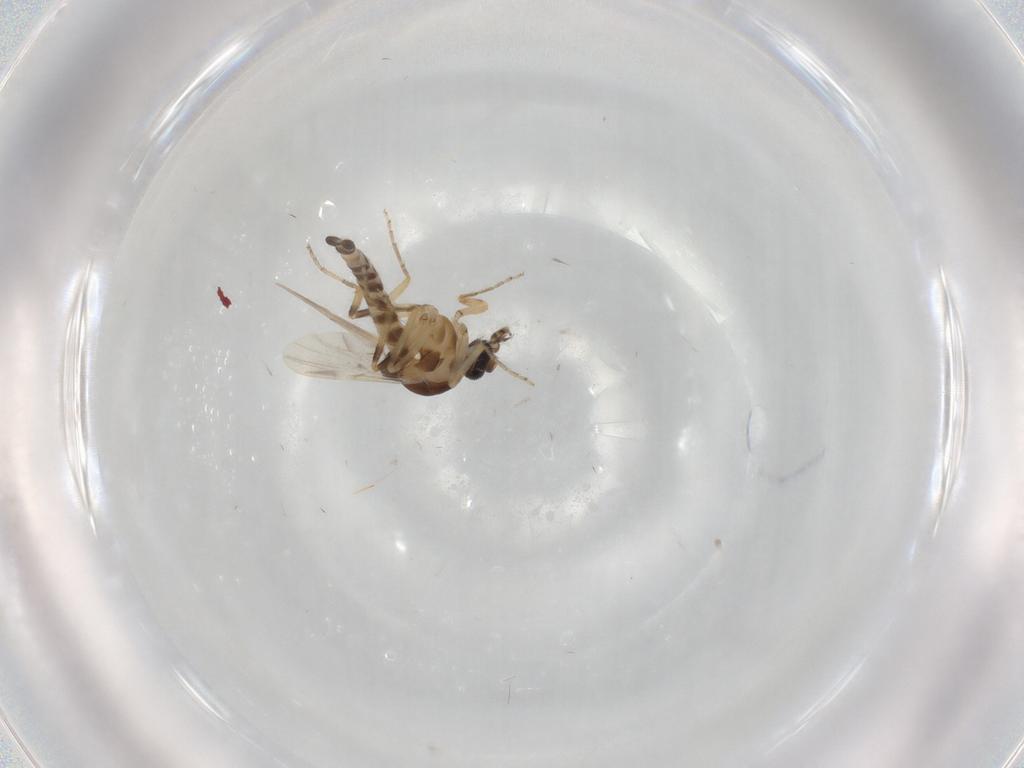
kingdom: Animalia
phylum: Arthropoda
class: Insecta
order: Diptera
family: Ceratopogonidae
